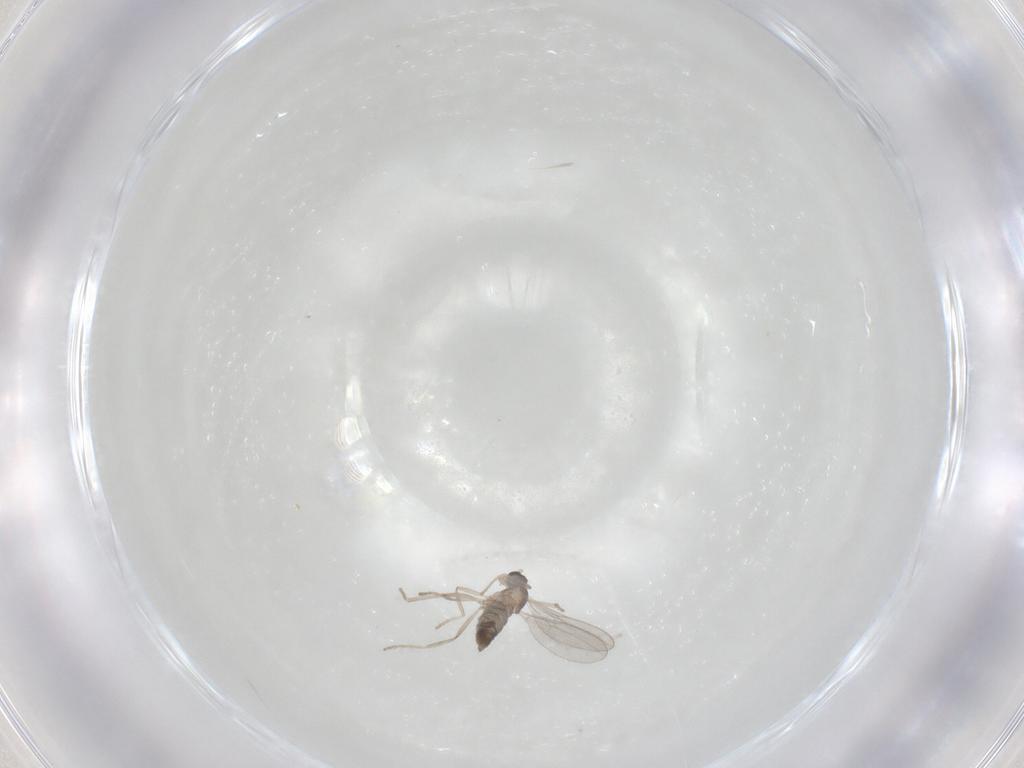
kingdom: Animalia
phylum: Arthropoda
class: Insecta
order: Diptera
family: Cecidomyiidae
